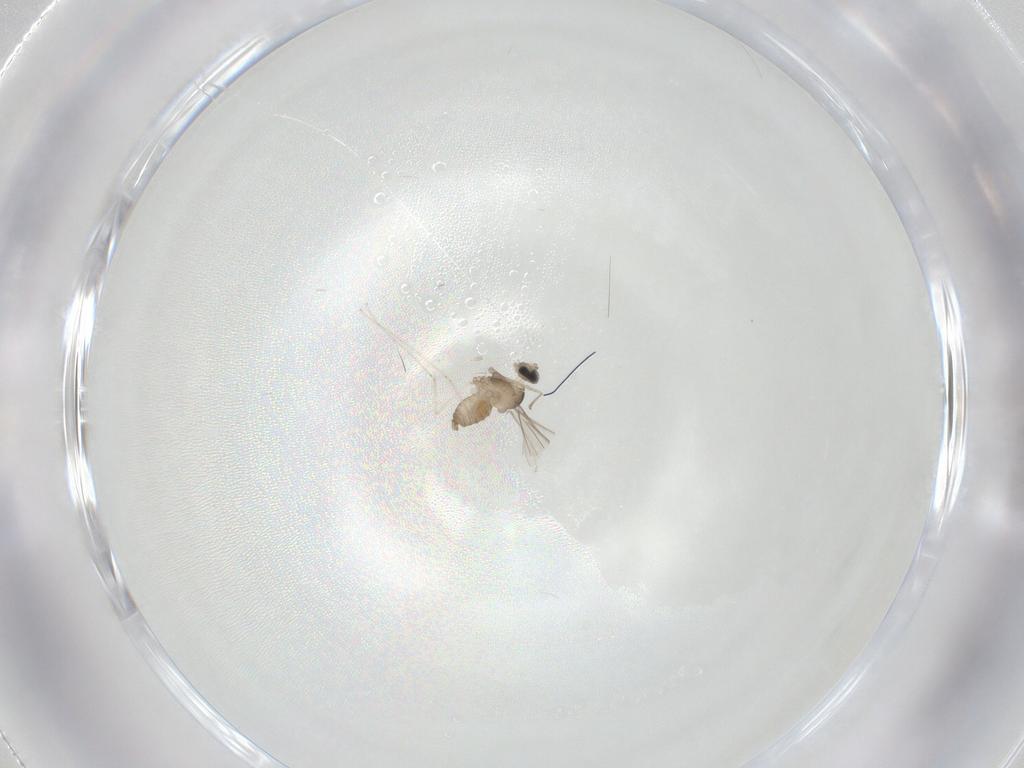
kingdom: Animalia
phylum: Arthropoda
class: Insecta
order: Diptera
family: Cecidomyiidae
